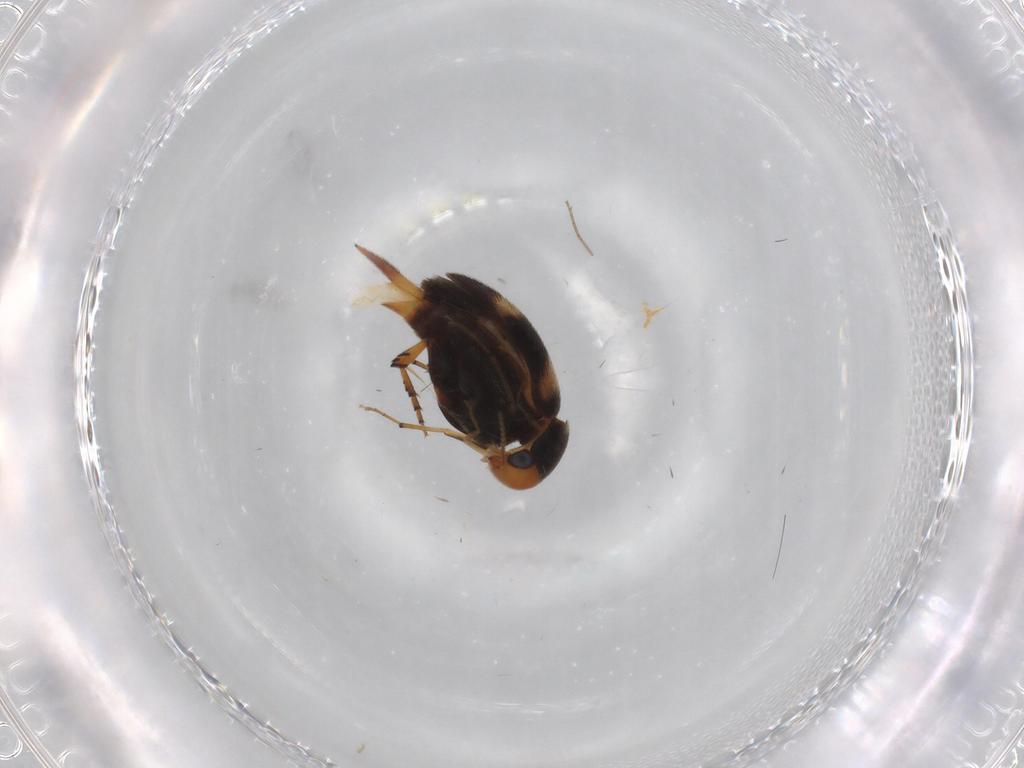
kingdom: Animalia
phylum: Arthropoda
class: Insecta
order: Coleoptera
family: Mordellidae
